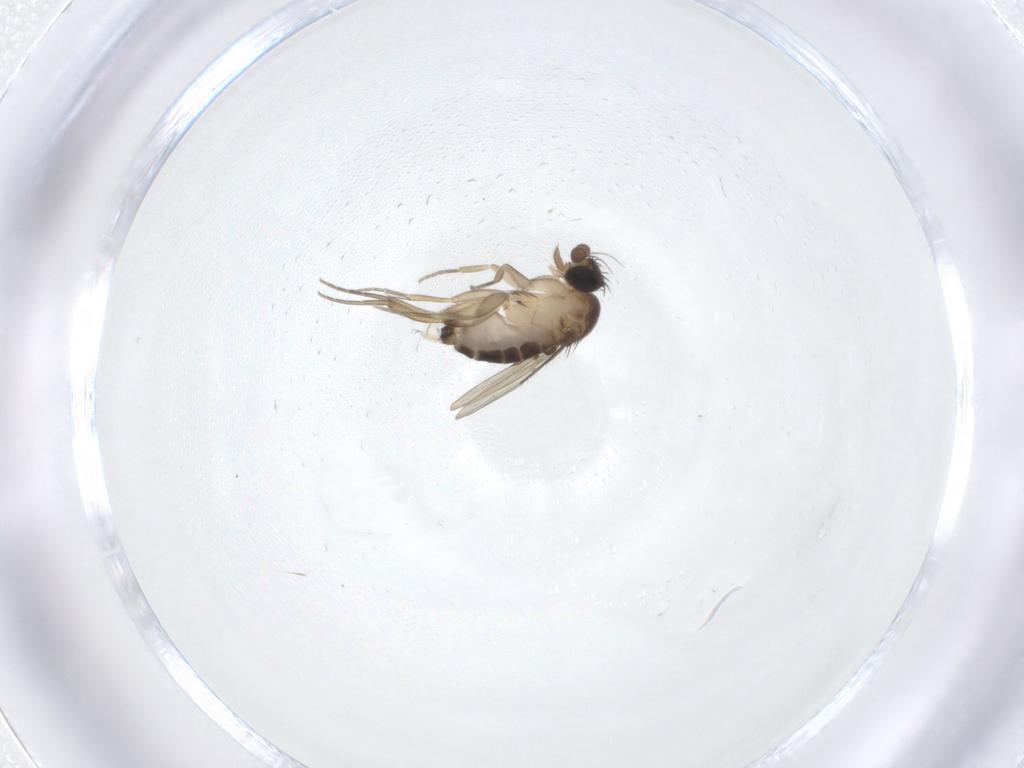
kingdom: Animalia
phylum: Arthropoda
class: Insecta
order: Diptera
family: Phoridae
